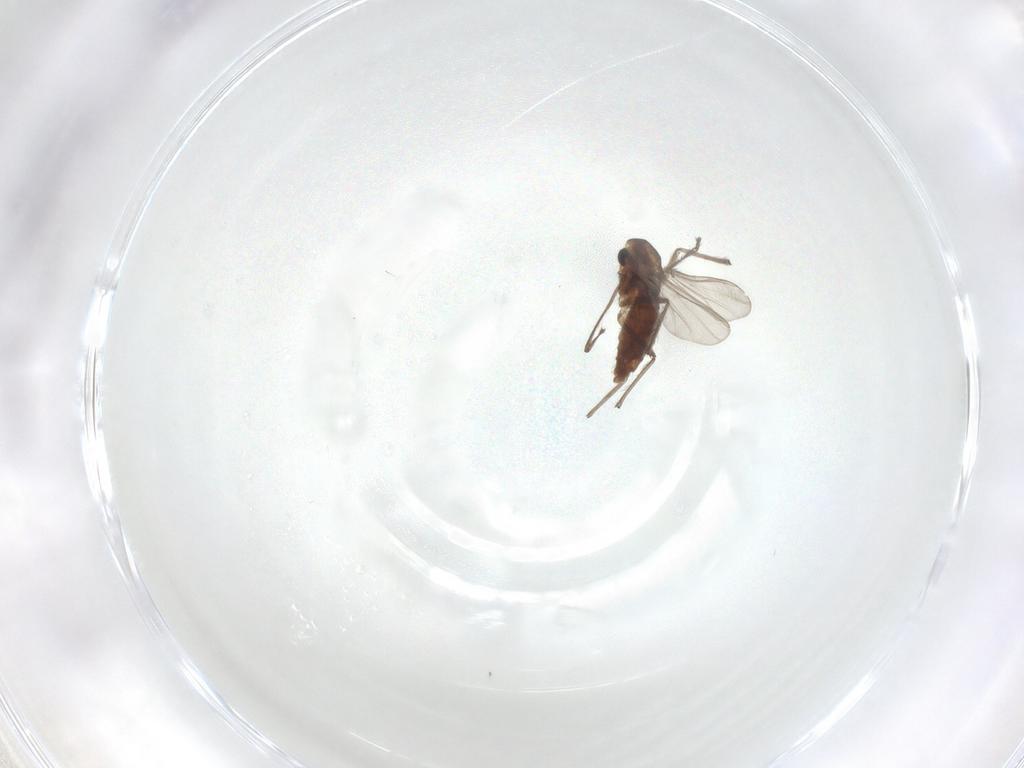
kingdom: Animalia
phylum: Arthropoda
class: Insecta
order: Diptera
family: Chironomidae
